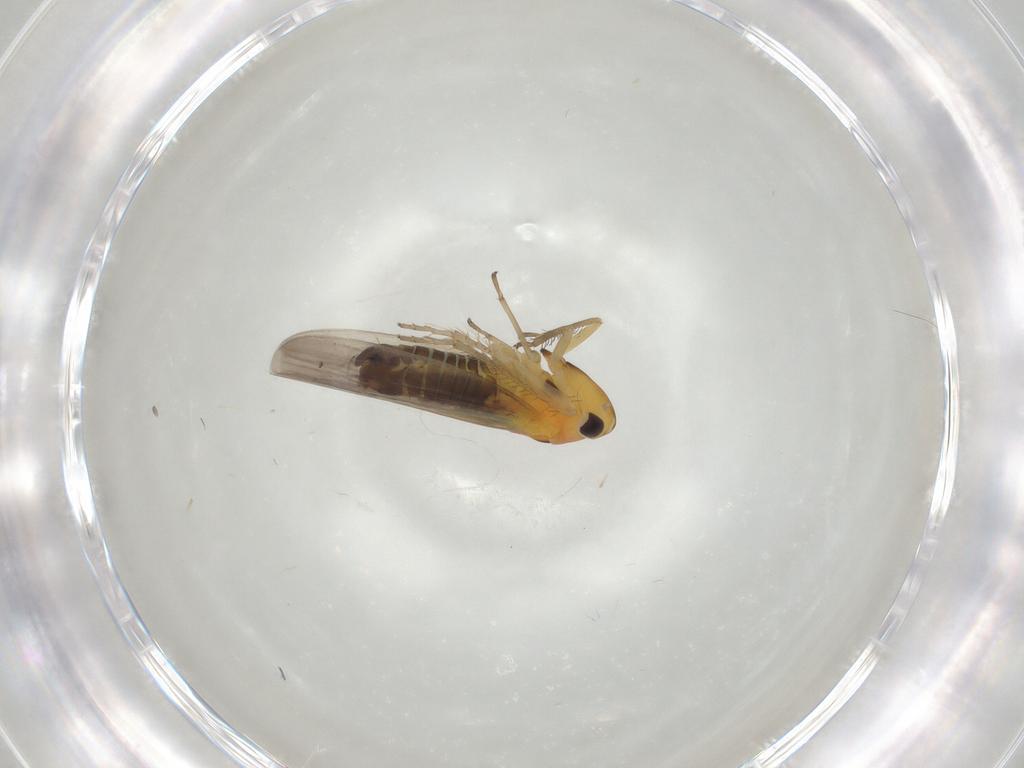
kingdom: Animalia
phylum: Arthropoda
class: Insecta
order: Hemiptera
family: Cicadellidae
